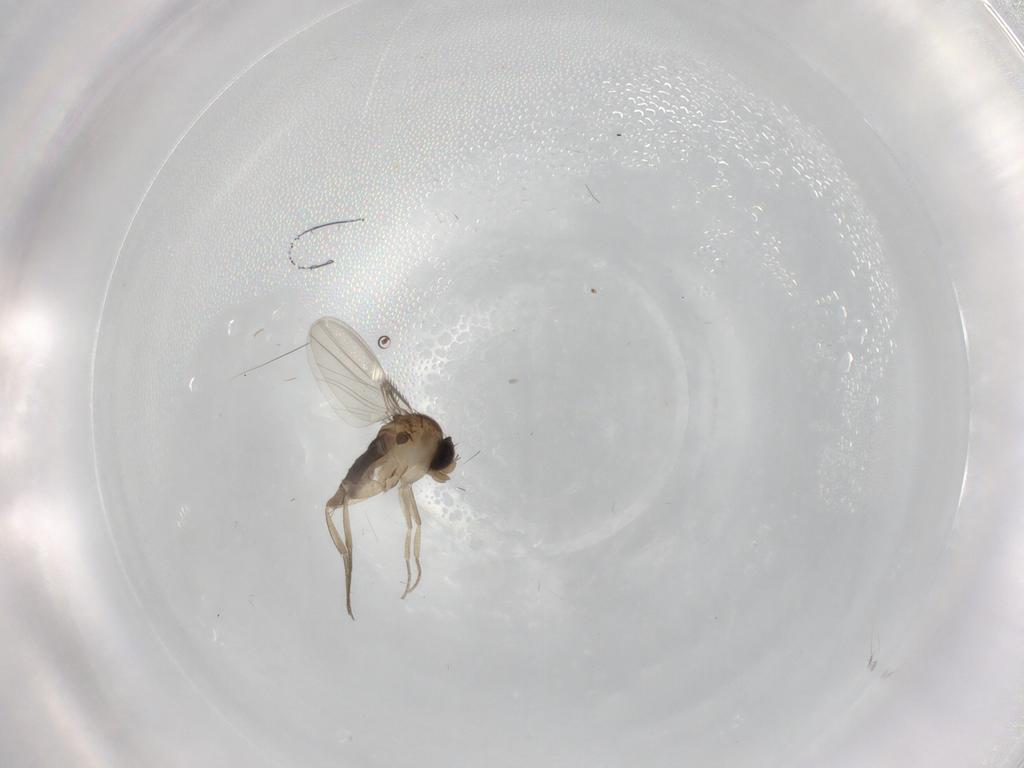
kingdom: Animalia
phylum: Arthropoda
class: Insecta
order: Diptera
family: Phoridae
